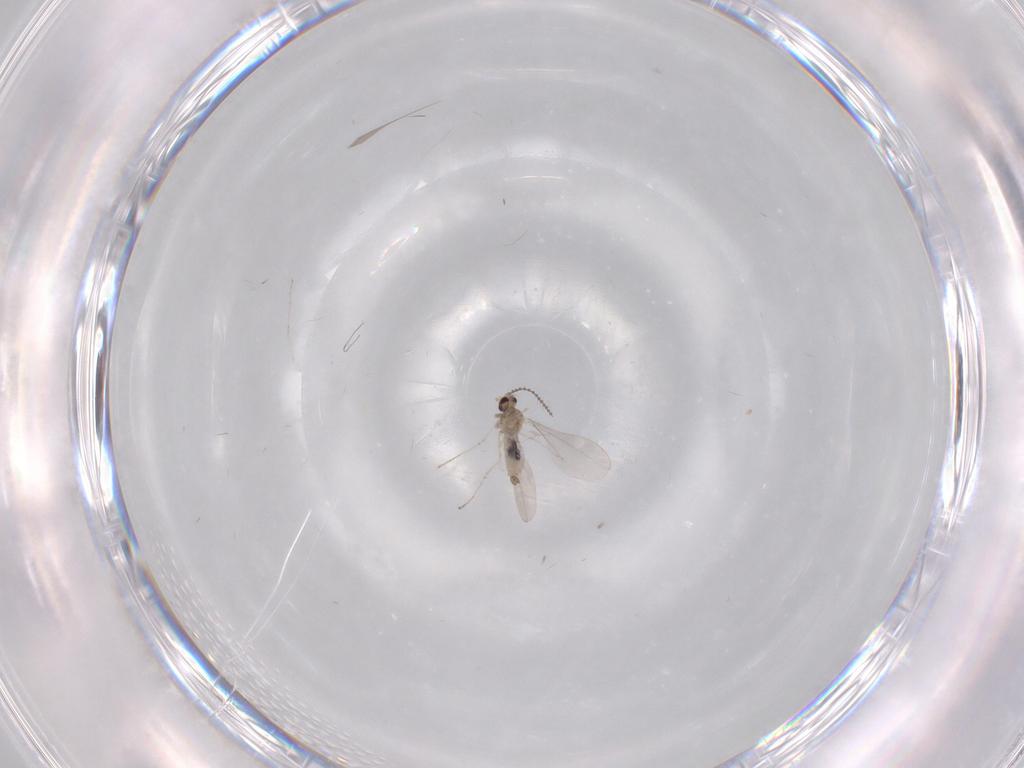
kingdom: Animalia
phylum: Arthropoda
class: Insecta
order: Diptera
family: Limoniidae
